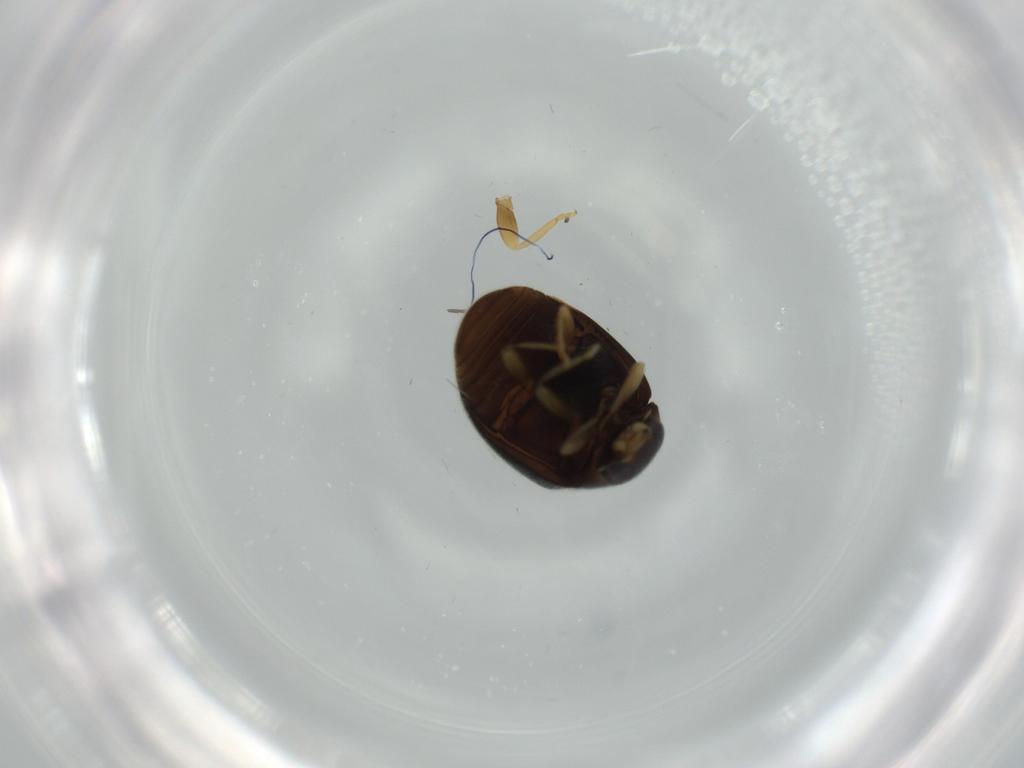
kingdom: Animalia
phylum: Arthropoda
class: Insecta
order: Coleoptera
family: Coccinellidae
